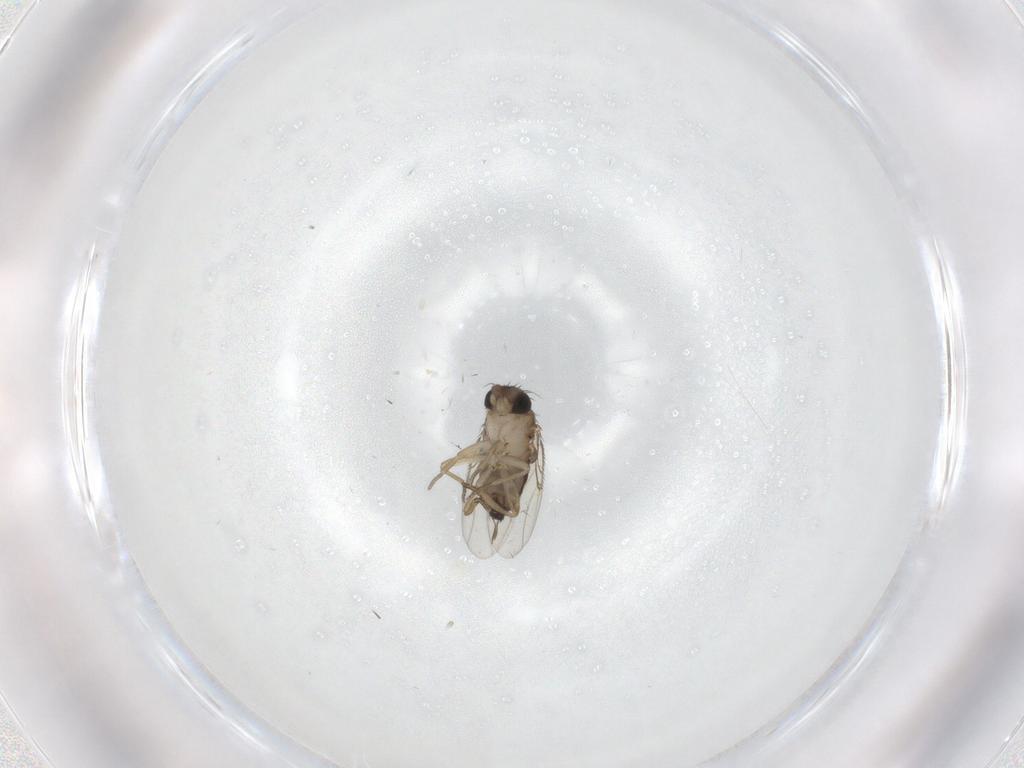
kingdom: Animalia
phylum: Arthropoda
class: Insecta
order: Diptera
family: Phoridae
